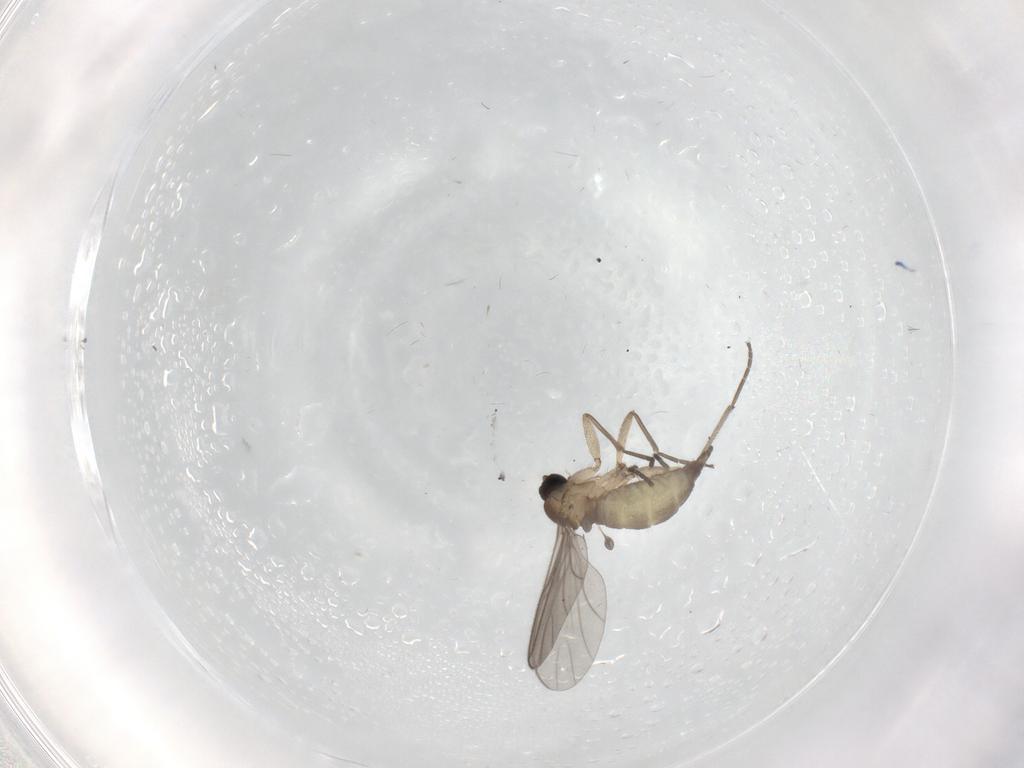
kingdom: Animalia
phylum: Arthropoda
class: Insecta
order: Diptera
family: Sciaridae
